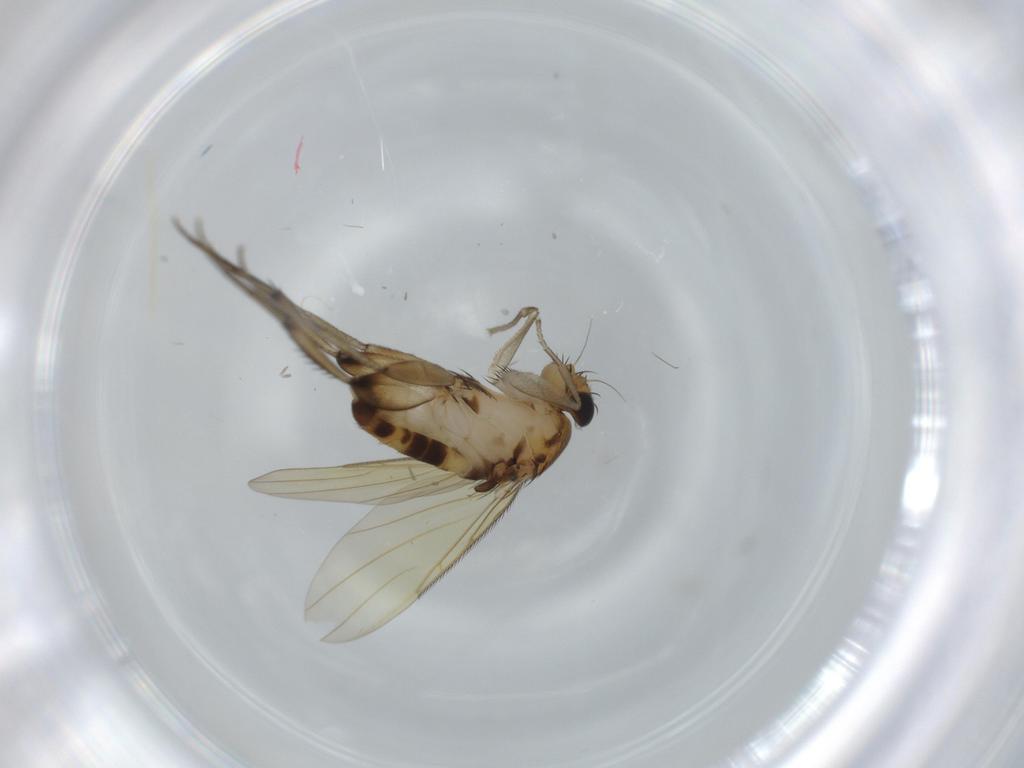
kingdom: Animalia
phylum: Arthropoda
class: Insecta
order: Diptera
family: Phoridae
